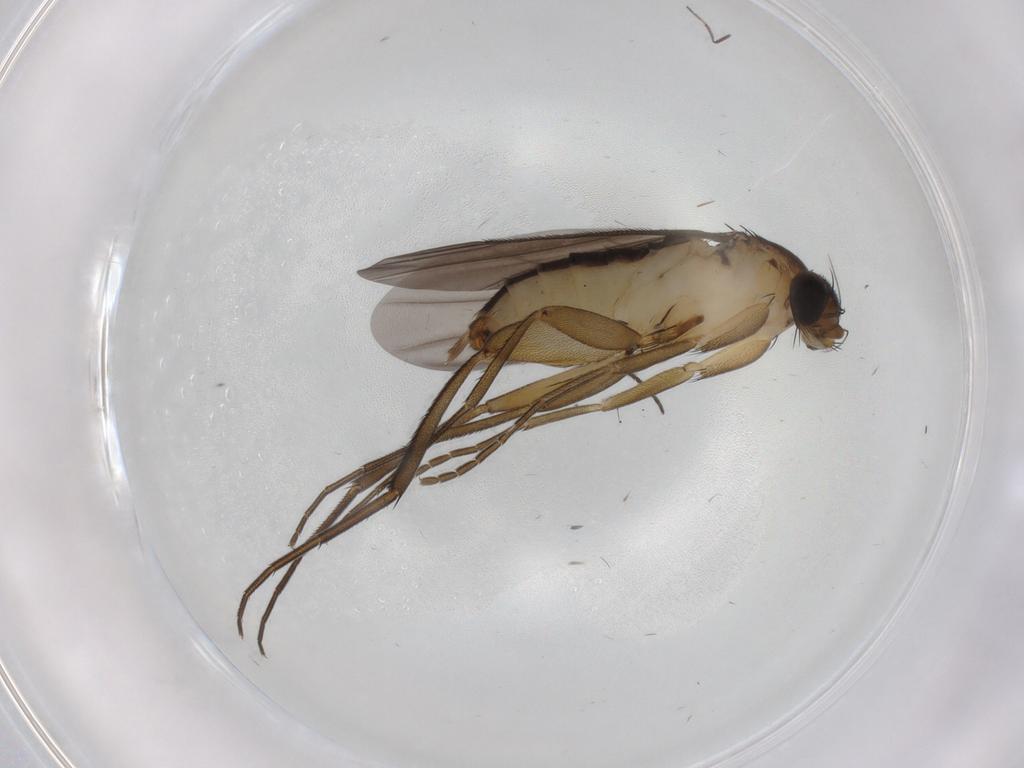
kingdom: Animalia
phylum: Arthropoda
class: Insecta
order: Diptera
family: Phoridae
